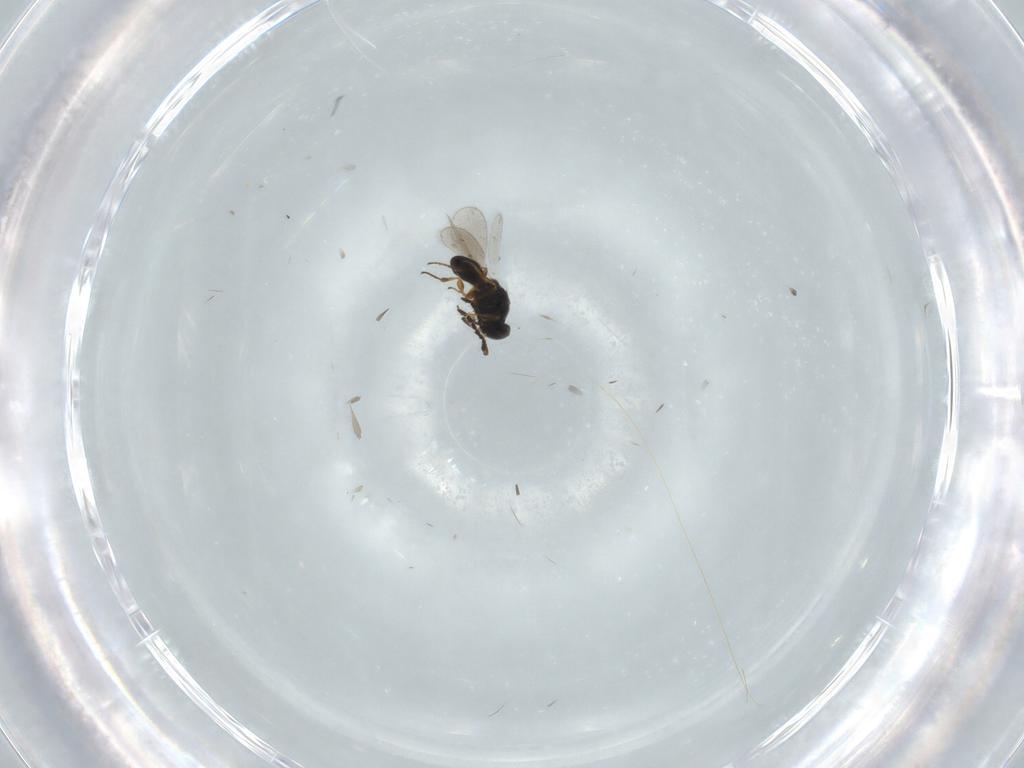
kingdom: Animalia
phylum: Arthropoda
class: Insecta
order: Hymenoptera
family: Platygastridae
